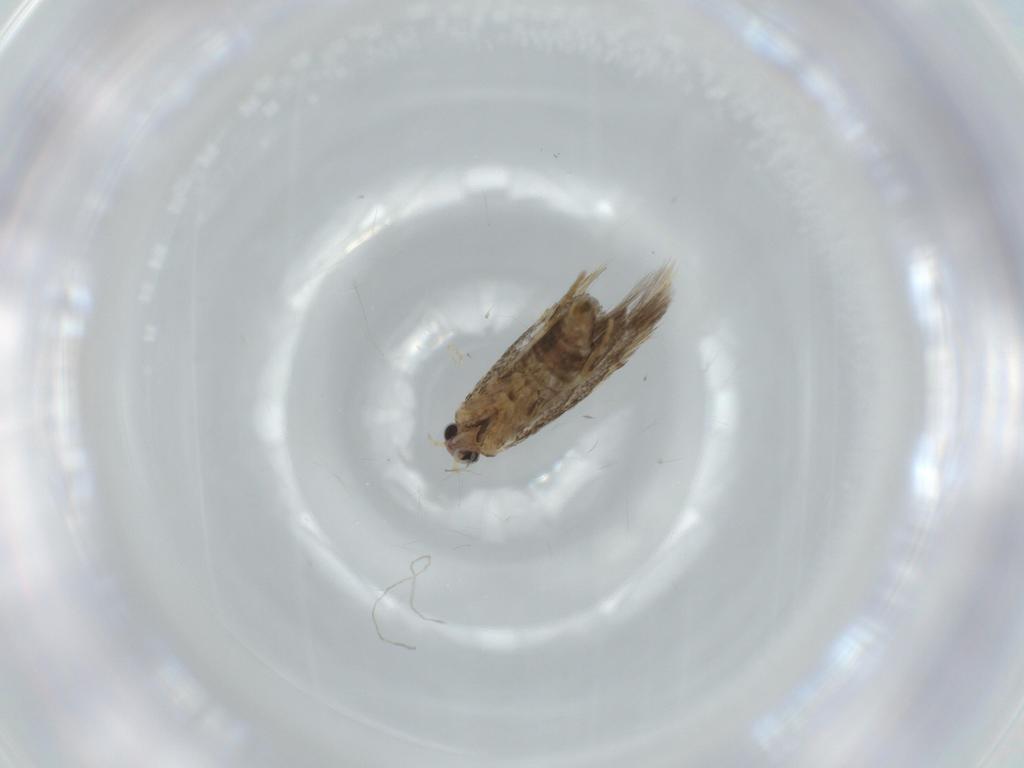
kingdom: Animalia
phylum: Arthropoda
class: Insecta
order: Lepidoptera
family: Tineidae
